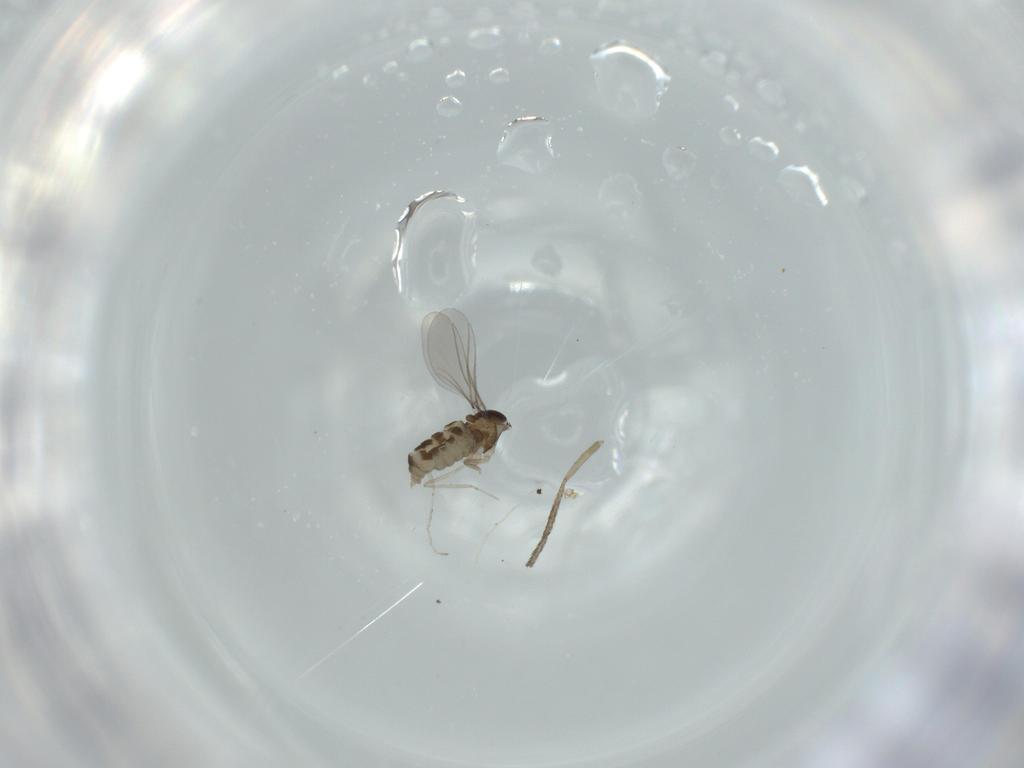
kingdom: Animalia
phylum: Arthropoda
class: Insecta
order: Diptera
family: Cecidomyiidae
